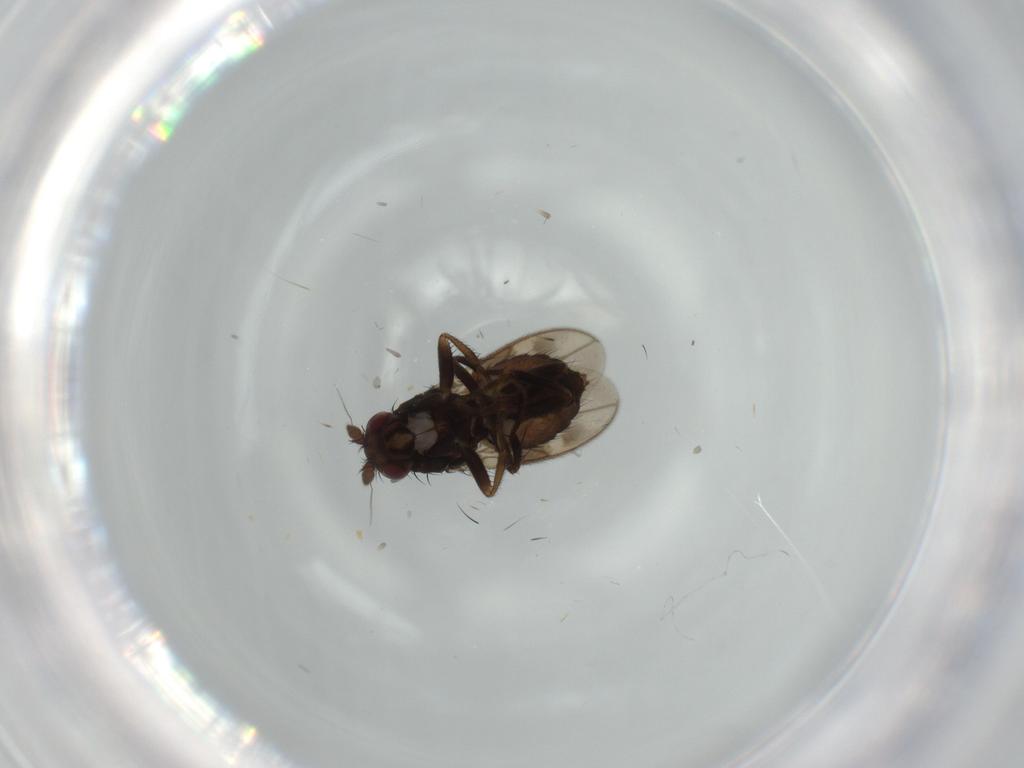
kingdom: Animalia
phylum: Arthropoda
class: Insecta
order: Diptera
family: Sphaeroceridae
